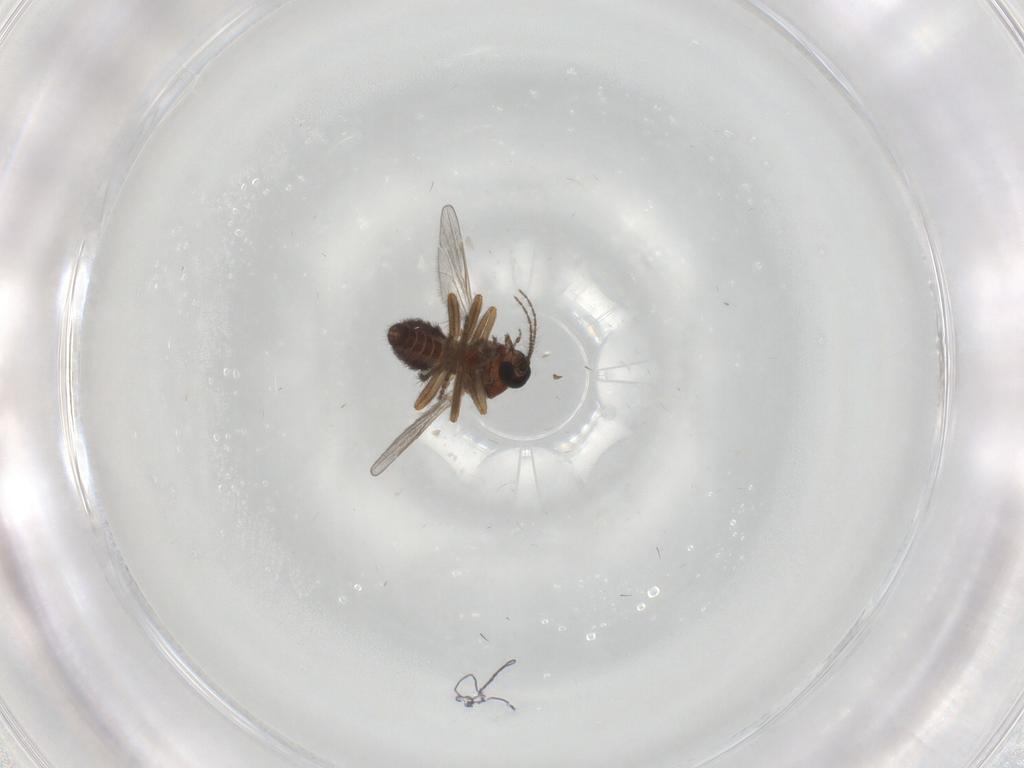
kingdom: Animalia
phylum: Arthropoda
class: Insecta
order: Diptera
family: Ceratopogonidae
